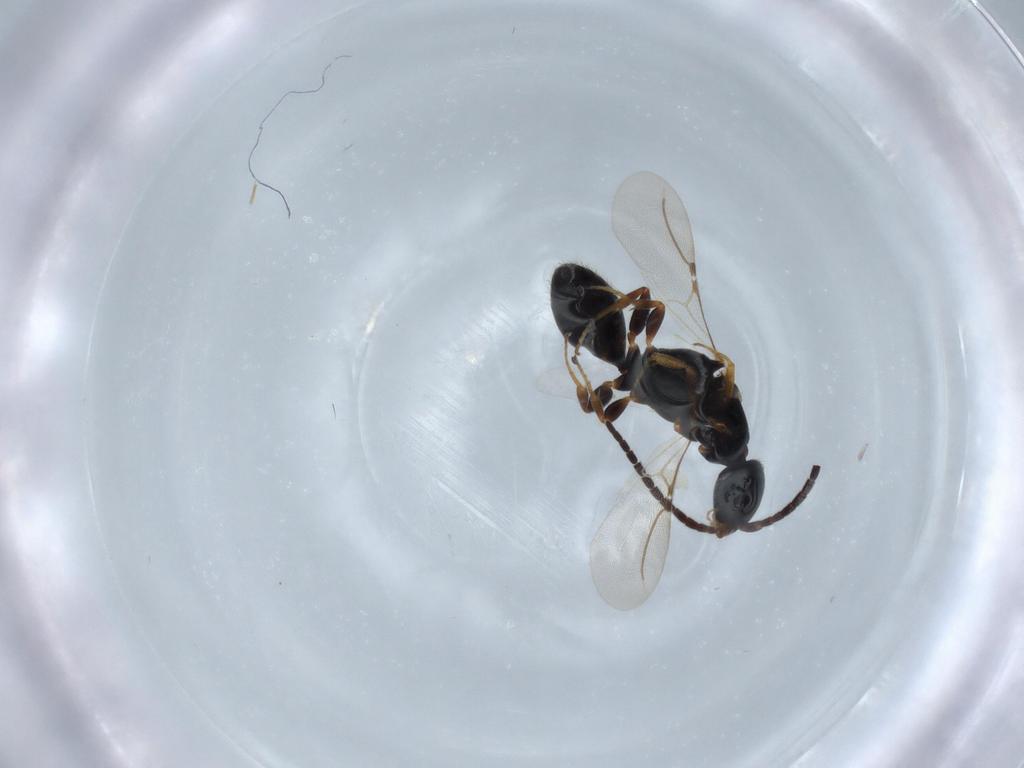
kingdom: Animalia
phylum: Arthropoda
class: Insecta
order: Hymenoptera
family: Bethylidae
